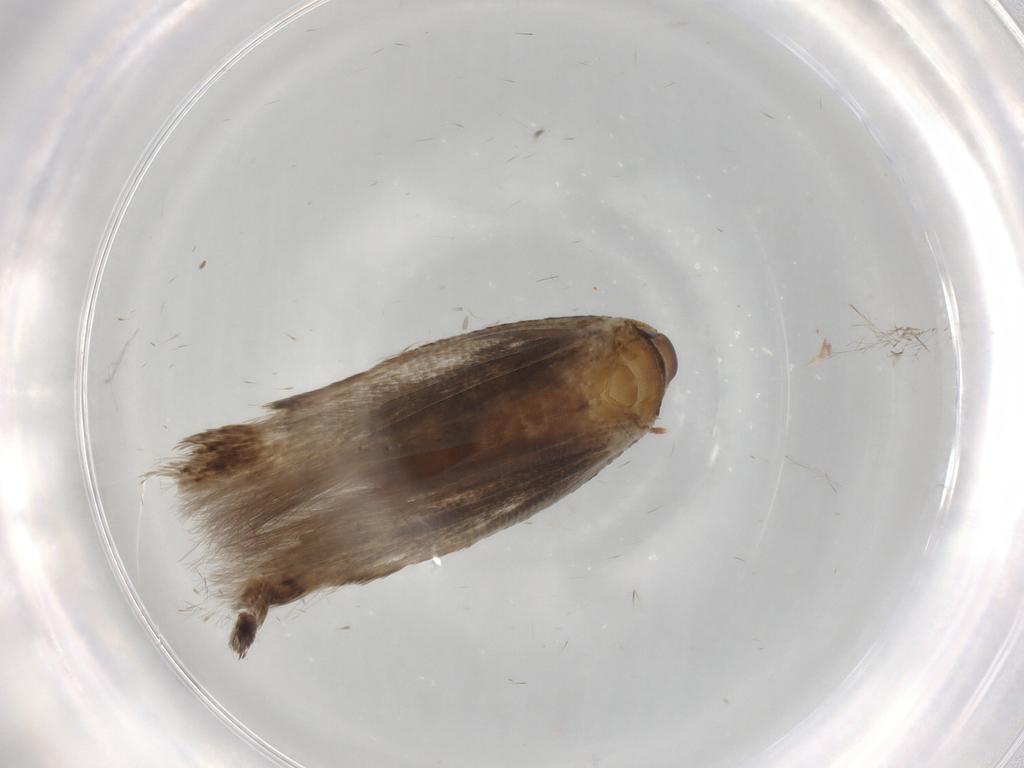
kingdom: Animalia
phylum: Arthropoda
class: Insecta
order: Lepidoptera
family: Cosmopterigidae
